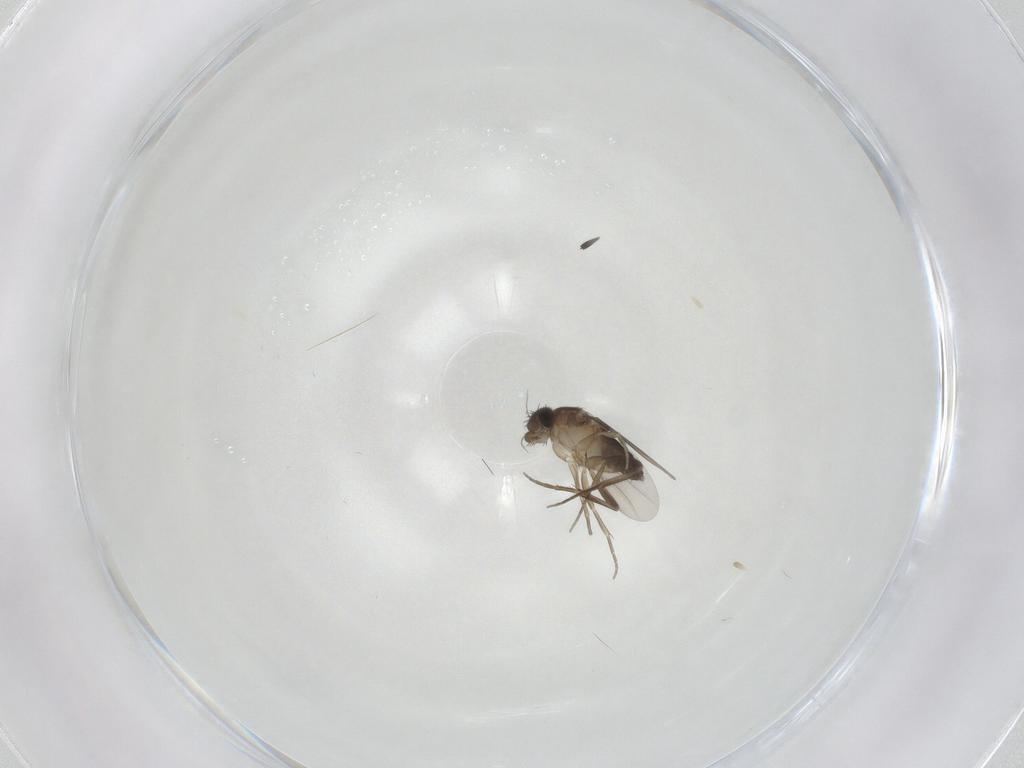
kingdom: Animalia
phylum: Arthropoda
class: Insecta
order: Diptera
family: Phoridae
